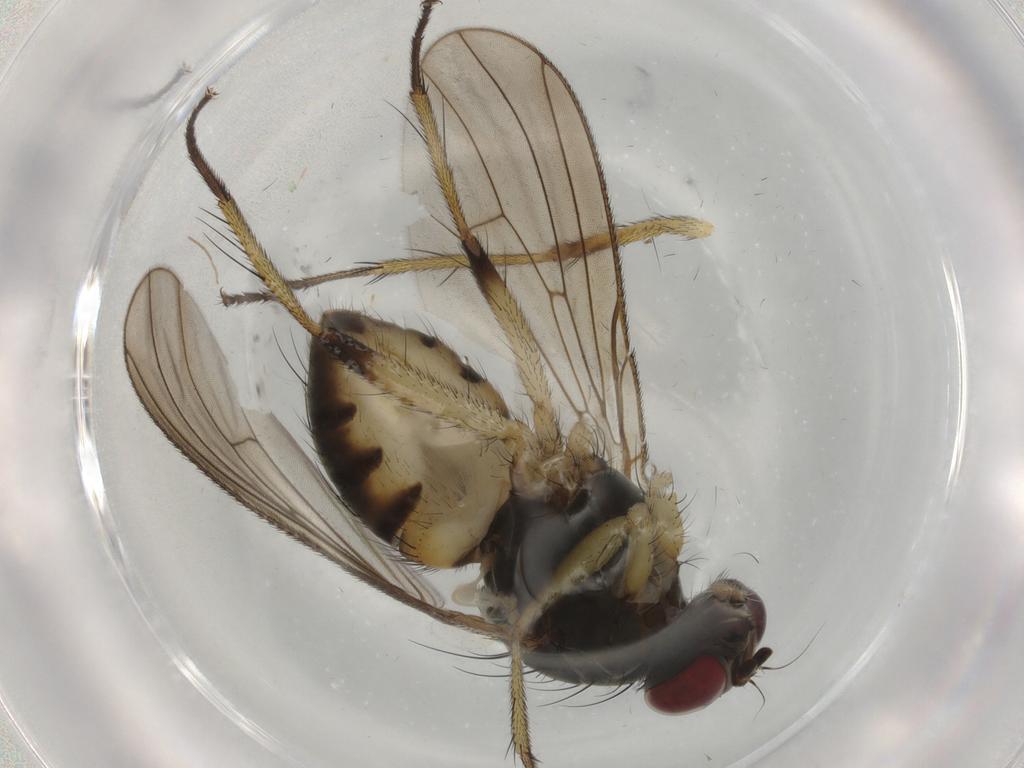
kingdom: Animalia
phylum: Arthropoda
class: Insecta
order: Diptera
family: Muscidae
